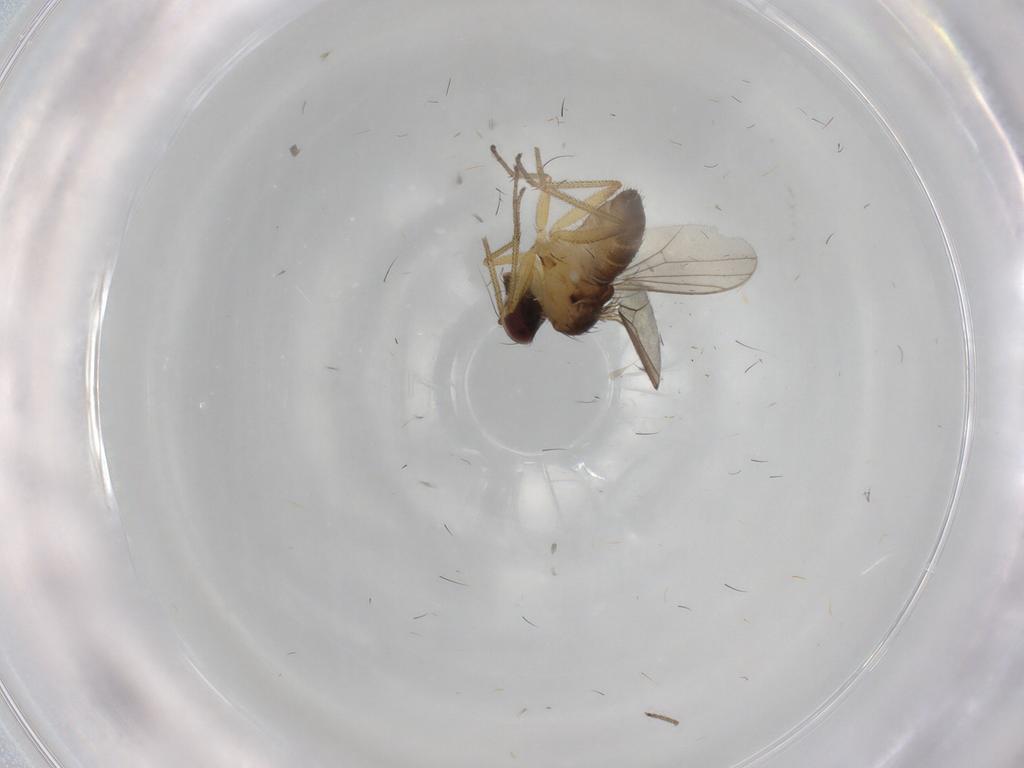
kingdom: Animalia
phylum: Arthropoda
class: Insecta
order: Diptera
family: Dolichopodidae
